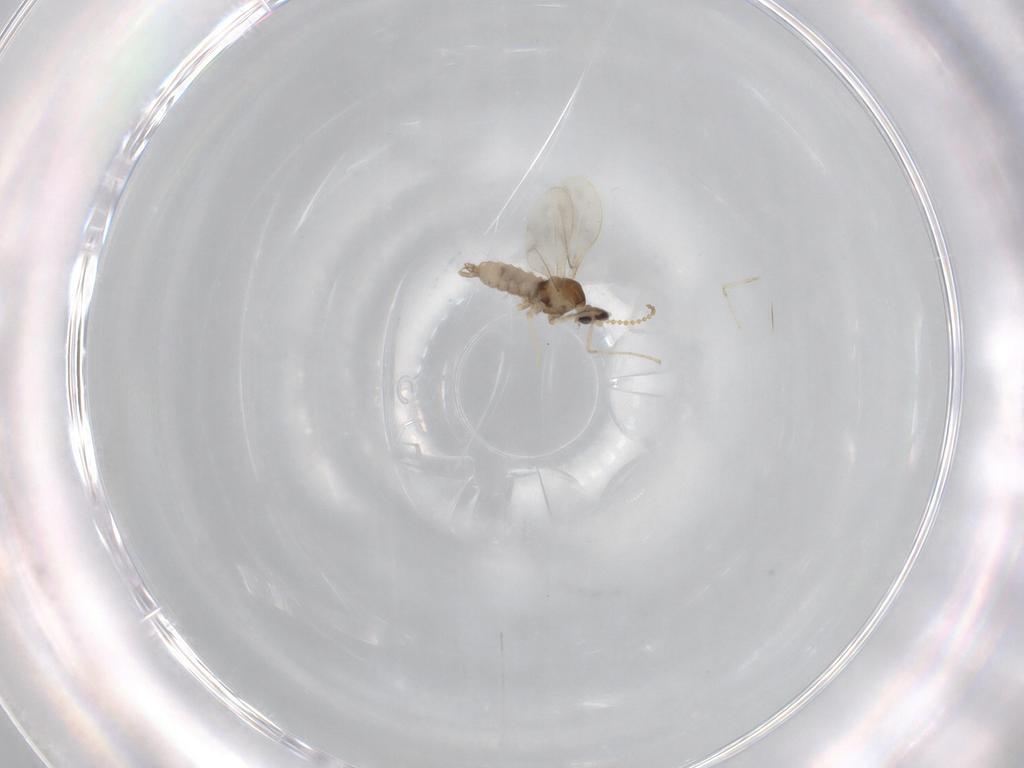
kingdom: Animalia
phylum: Arthropoda
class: Insecta
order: Diptera
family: Cecidomyiidae
